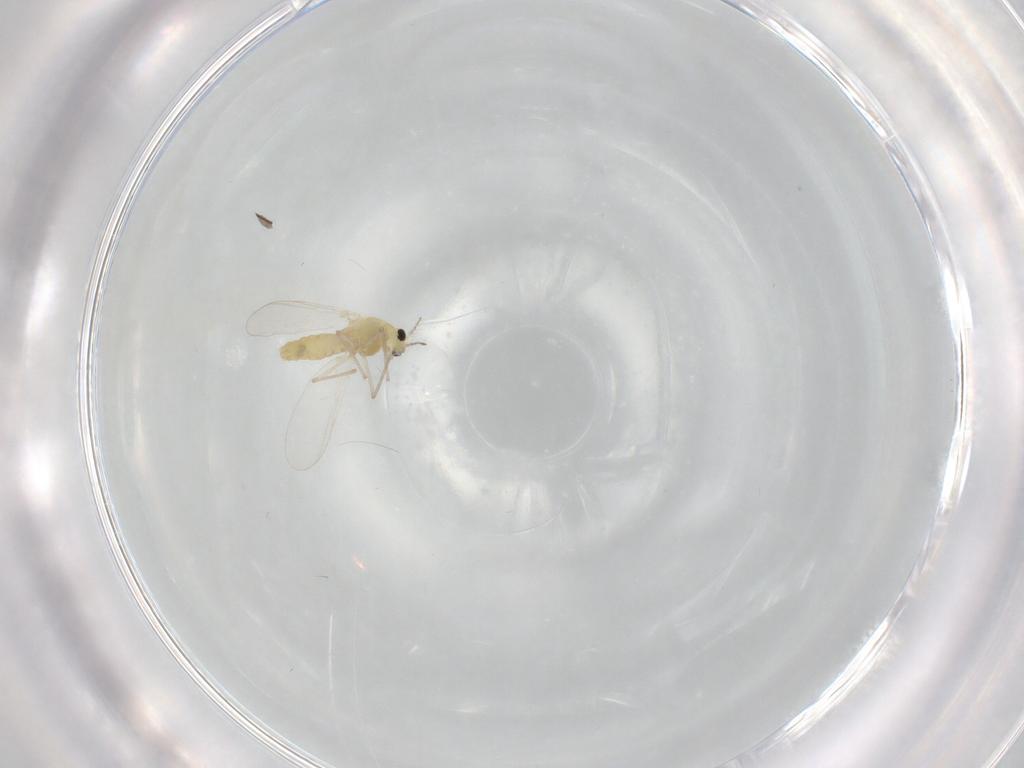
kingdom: Animalia
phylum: Arthropoda
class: Insecta
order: Diptera
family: Chironomidae
